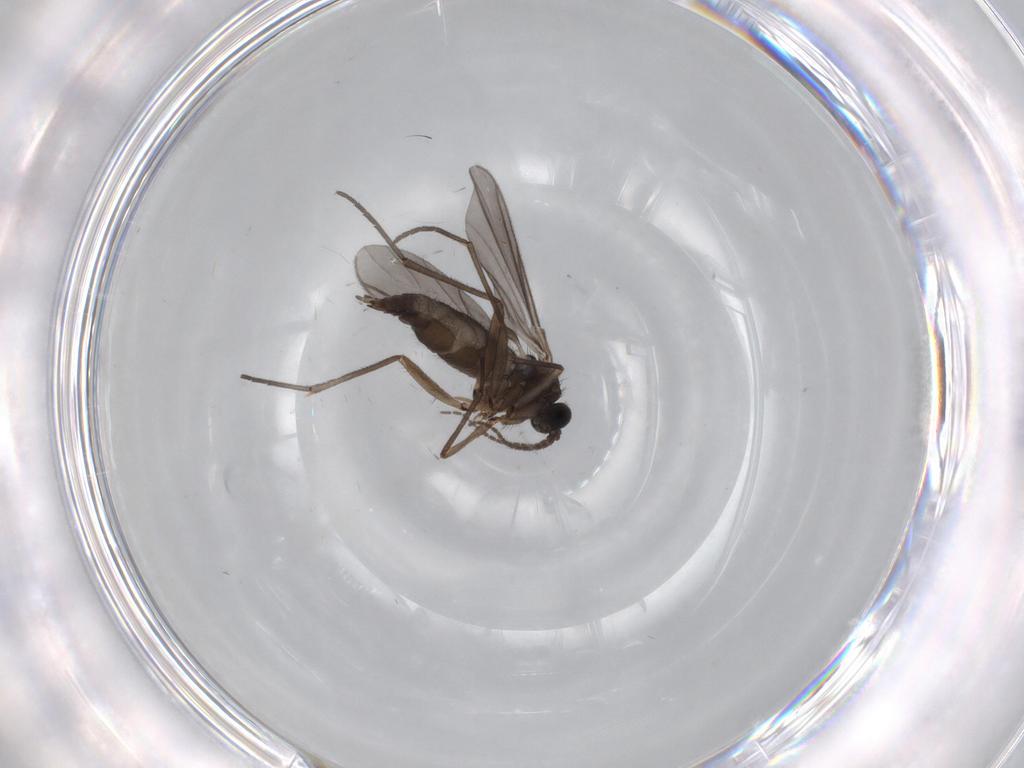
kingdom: Animalia
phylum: Arthropoda
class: Insecta
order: Diptera
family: Sciaridae
